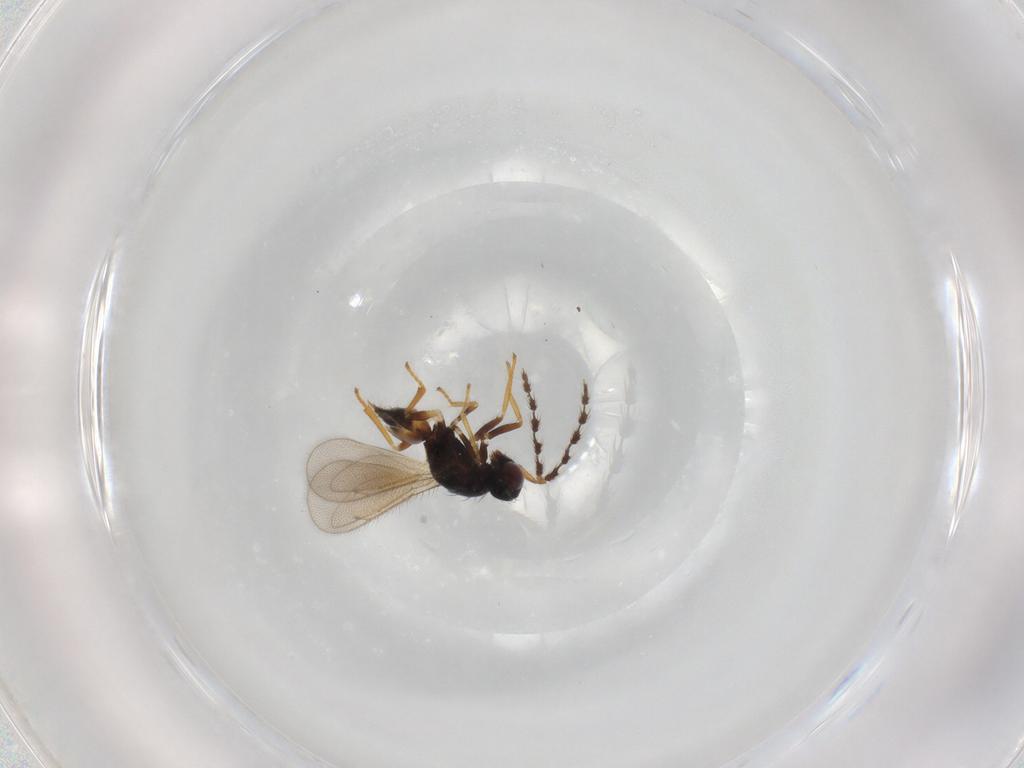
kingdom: Animalia
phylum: Arthropoda
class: Insecta
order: Hymenoptera
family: Eulophidae
